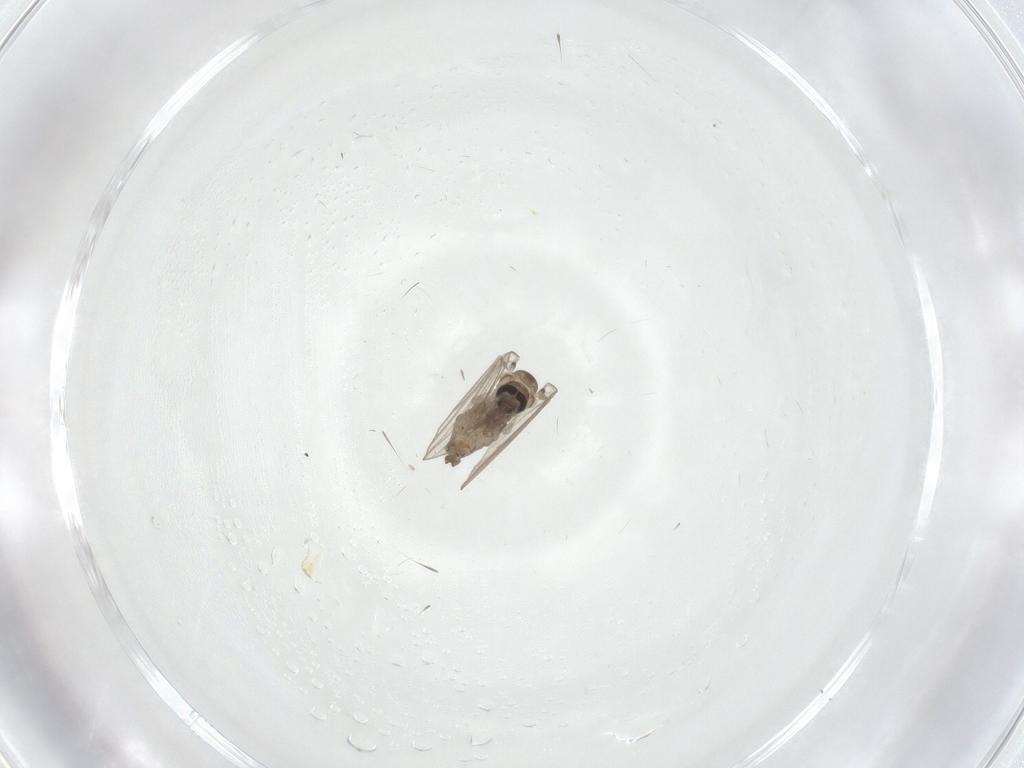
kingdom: Animalia
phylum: Arthropoda
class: Insecta
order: Diptera
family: Psychodidae
